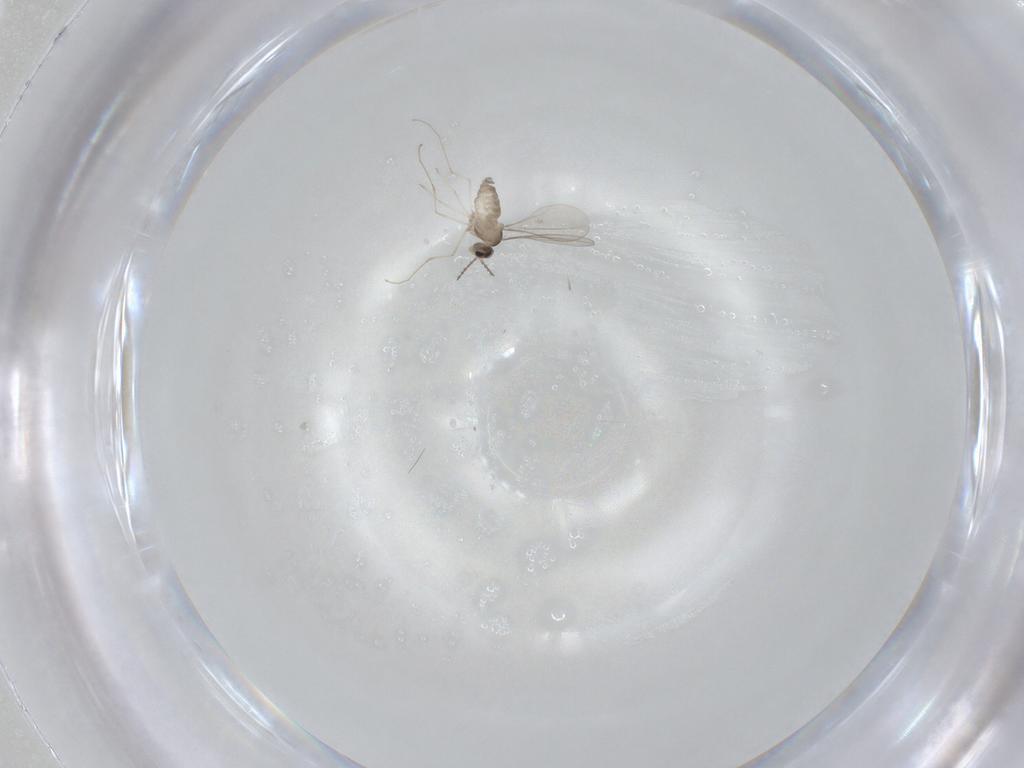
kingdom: Animalia
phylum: Arthropoda
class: Insecta
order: Diptera
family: Cecidomyiidae
